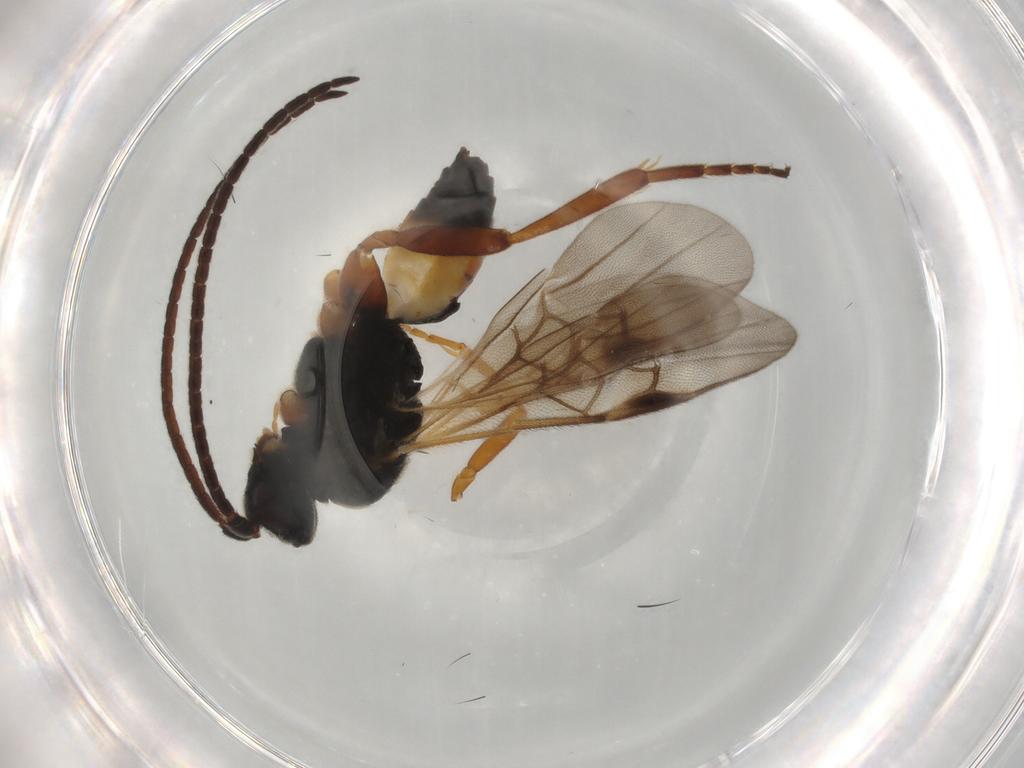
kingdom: Animalia
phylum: Arthropoda
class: Insecta
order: Hymenoptera
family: Braconidae
